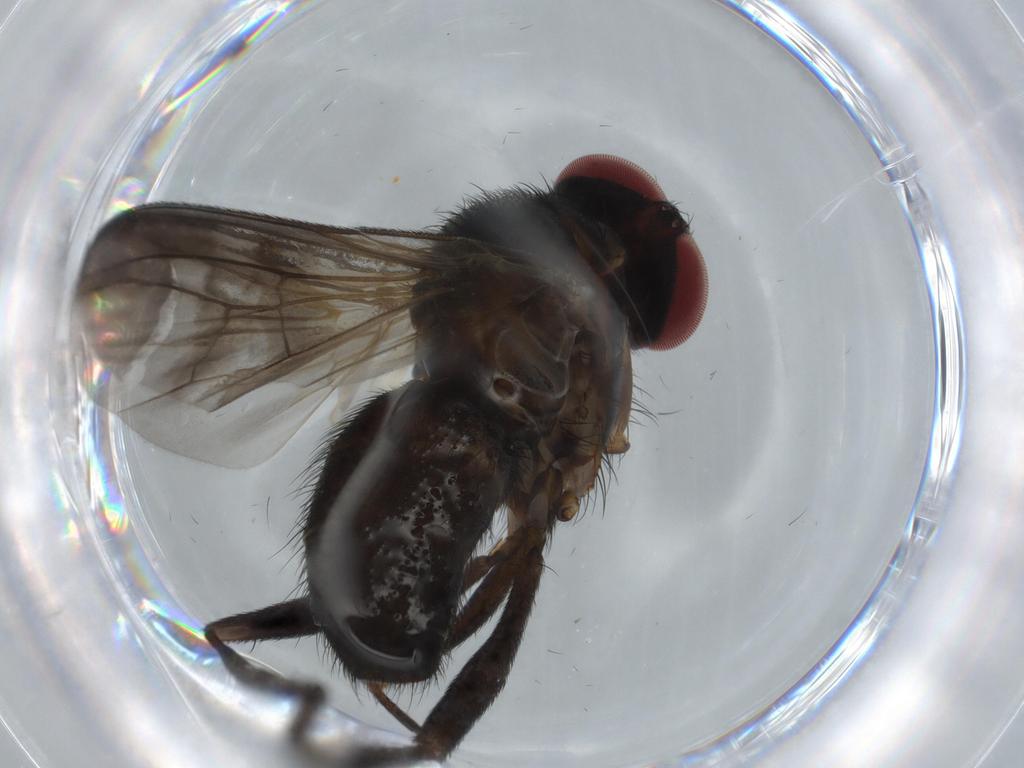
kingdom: Animalia
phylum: Arthropoda
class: Insecta
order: Diptera
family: Calliphoridae
